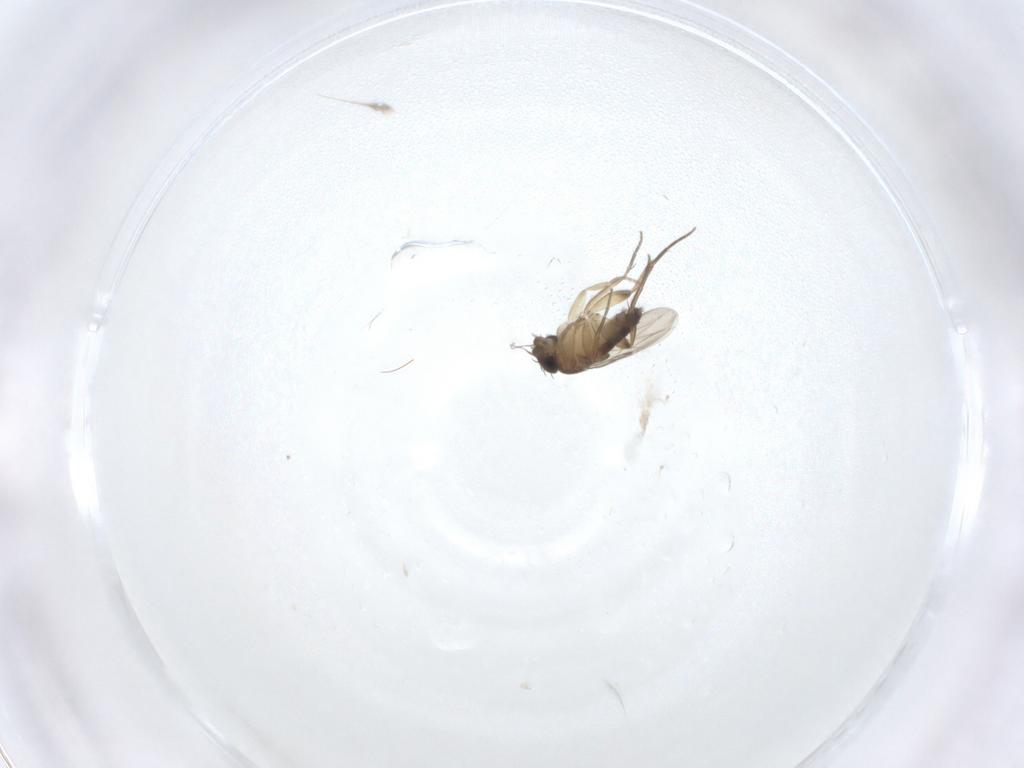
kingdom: Animalia
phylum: Arthropoda
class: Insecta
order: Diptera
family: Phoridae
